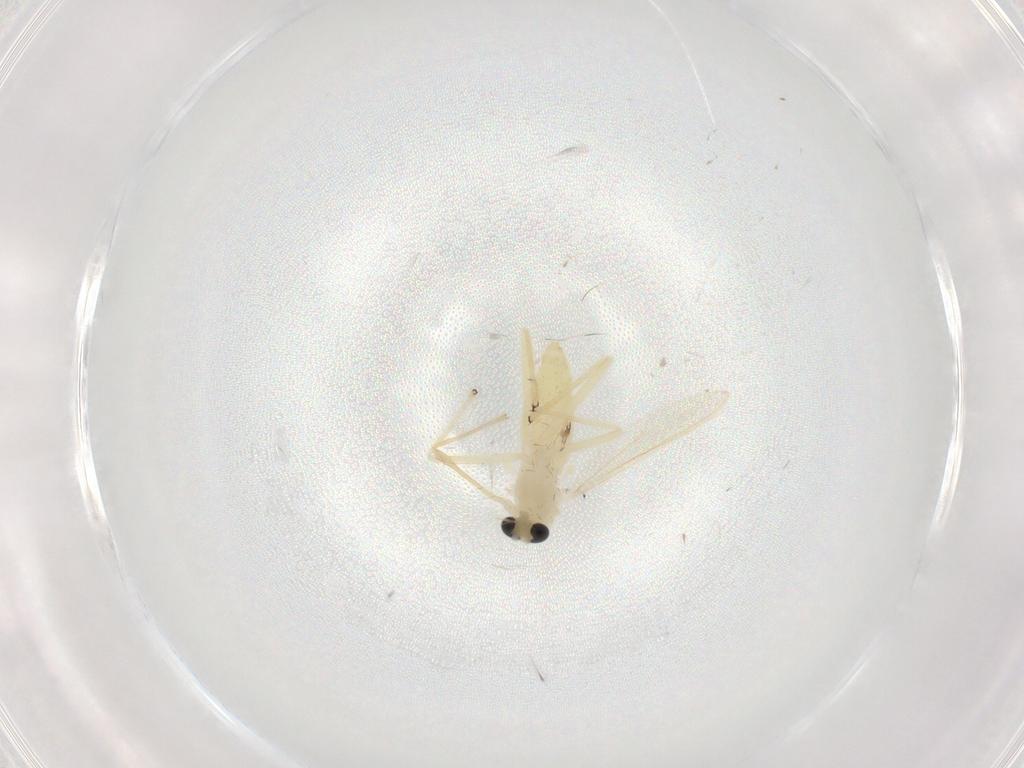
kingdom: Animalia
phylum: Arthropoda
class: Insecta
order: Diptera
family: Chironomidae
